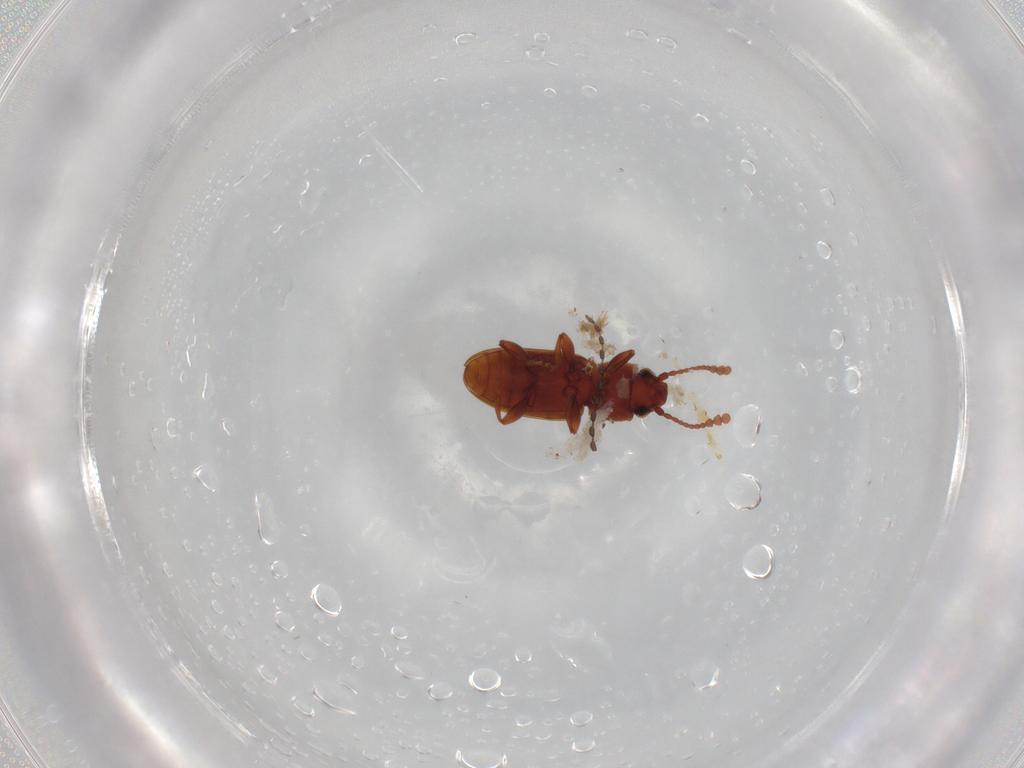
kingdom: Animalia
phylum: Arthropoda
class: Insecta
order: Coleoptera
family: Silvanidae
